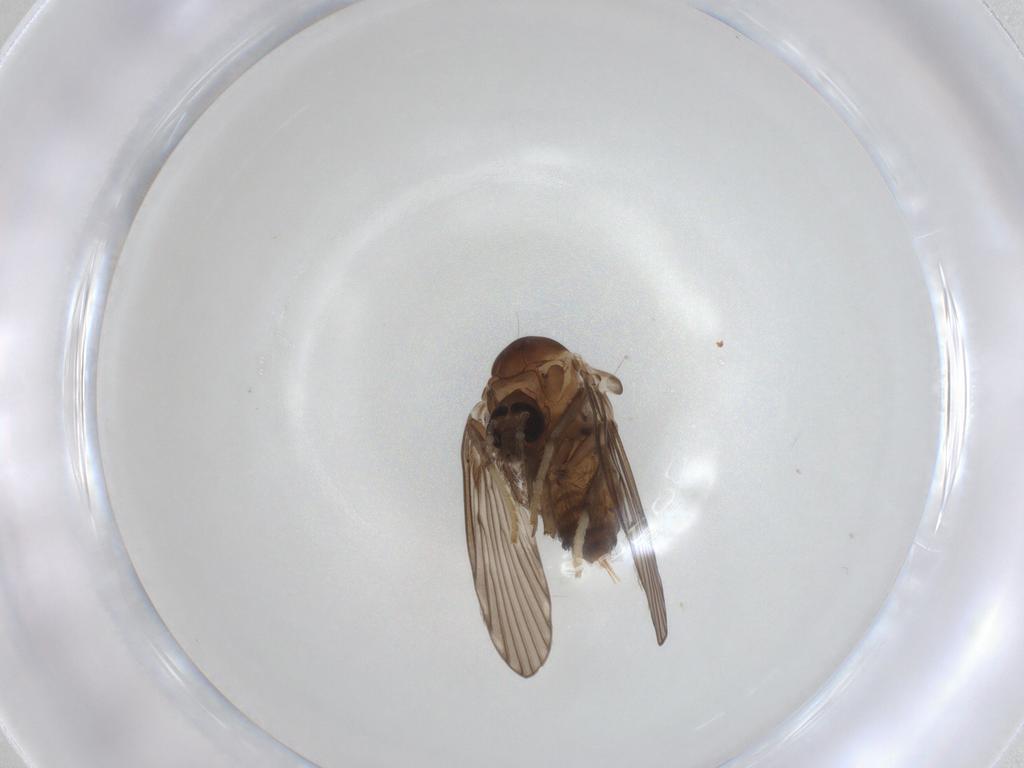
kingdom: Animalia
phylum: Arthropoda
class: Insecta
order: Diptera
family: Psychodidae
